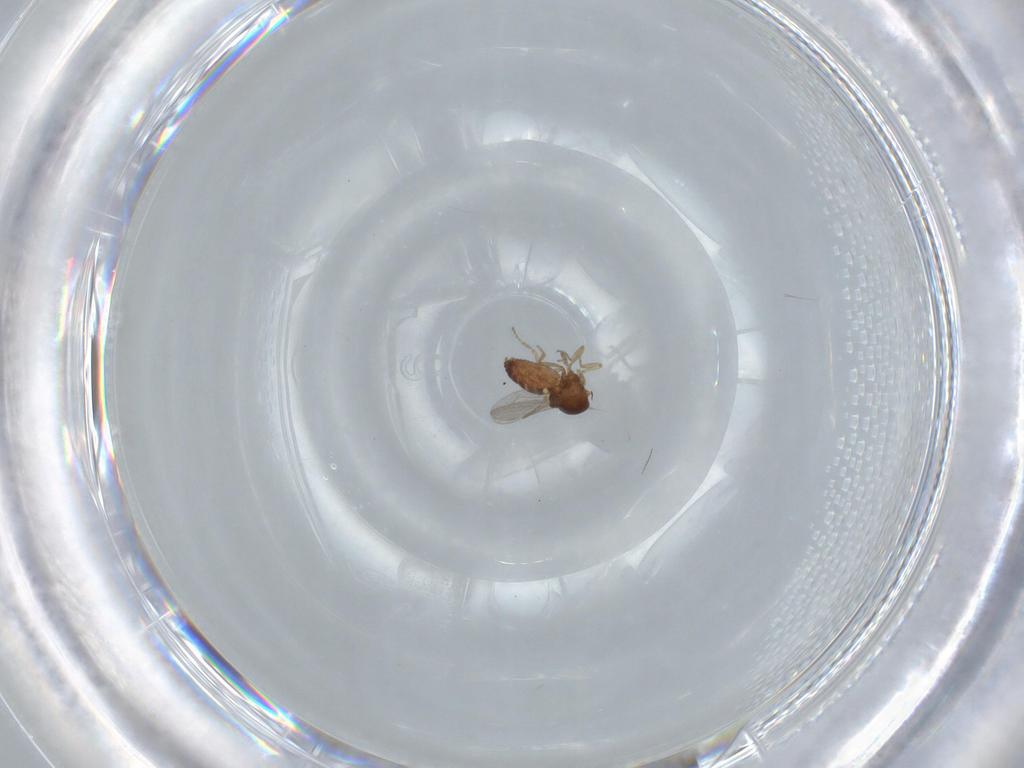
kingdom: Animalia
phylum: Arthropoda
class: Insecta
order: Diptera
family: Ceratopogonidae
